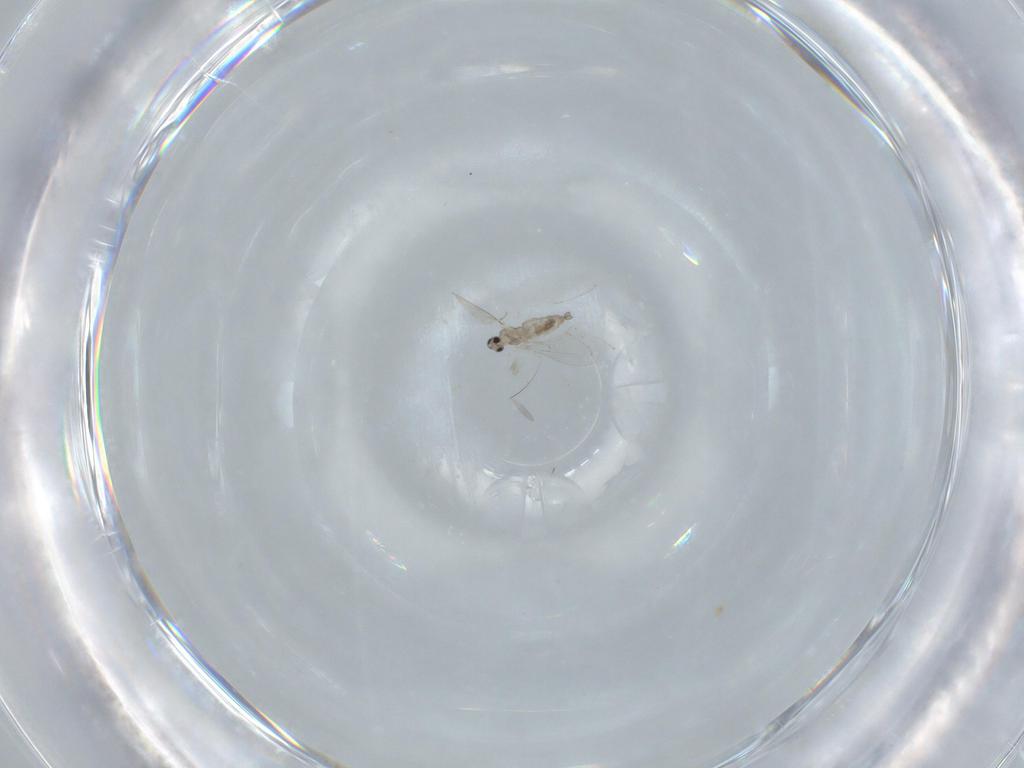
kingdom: Animalia
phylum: Arthropoda
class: Insecta
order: Diptera
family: Cecidomyiidae
